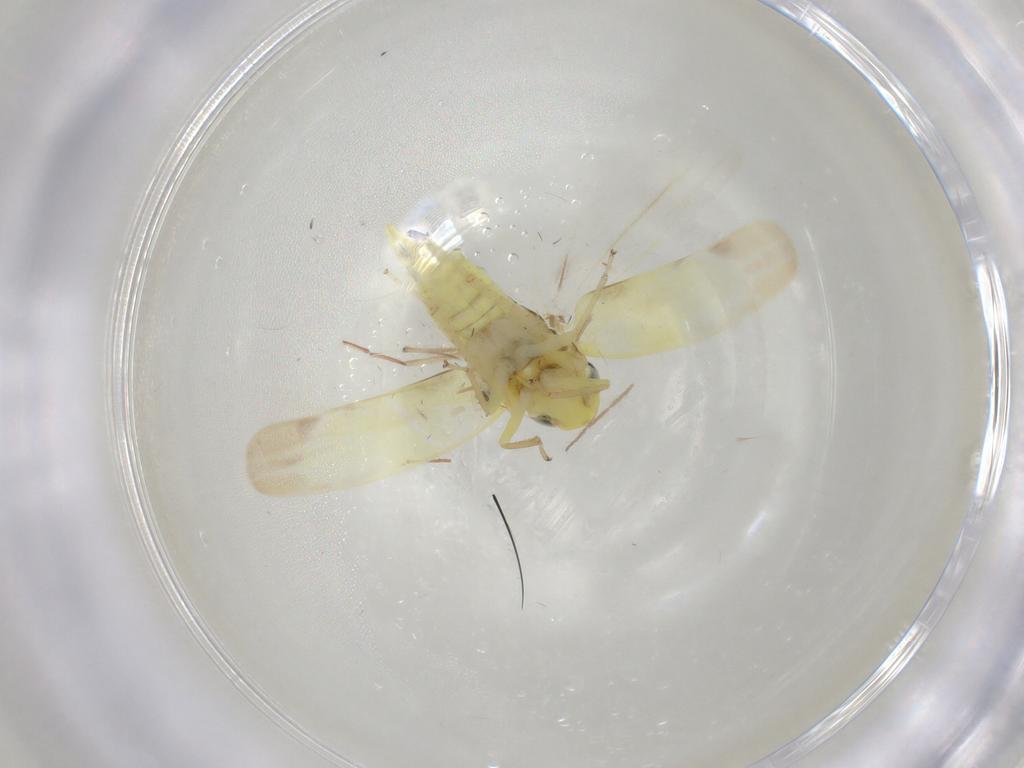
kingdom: Animalia
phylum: Arthropoda
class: Insecta
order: Hemiptera
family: Cicadellidae
